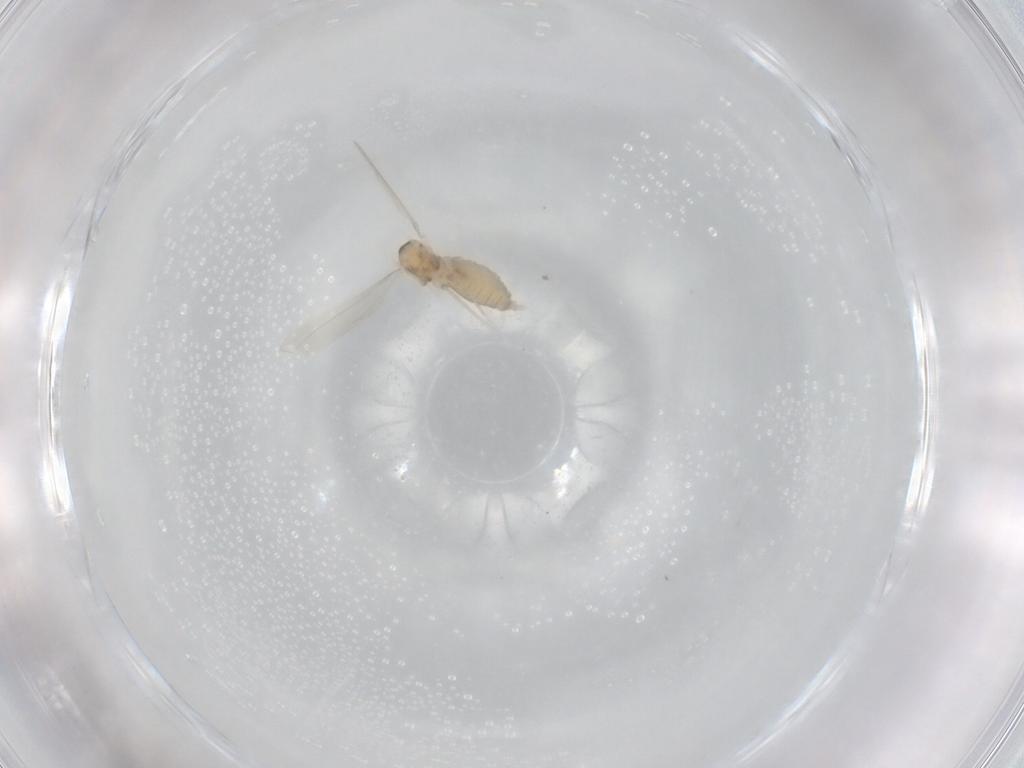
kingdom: Animalia
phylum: Arthropoda
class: Insecta
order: Diptera
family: Cecidomyiidae
